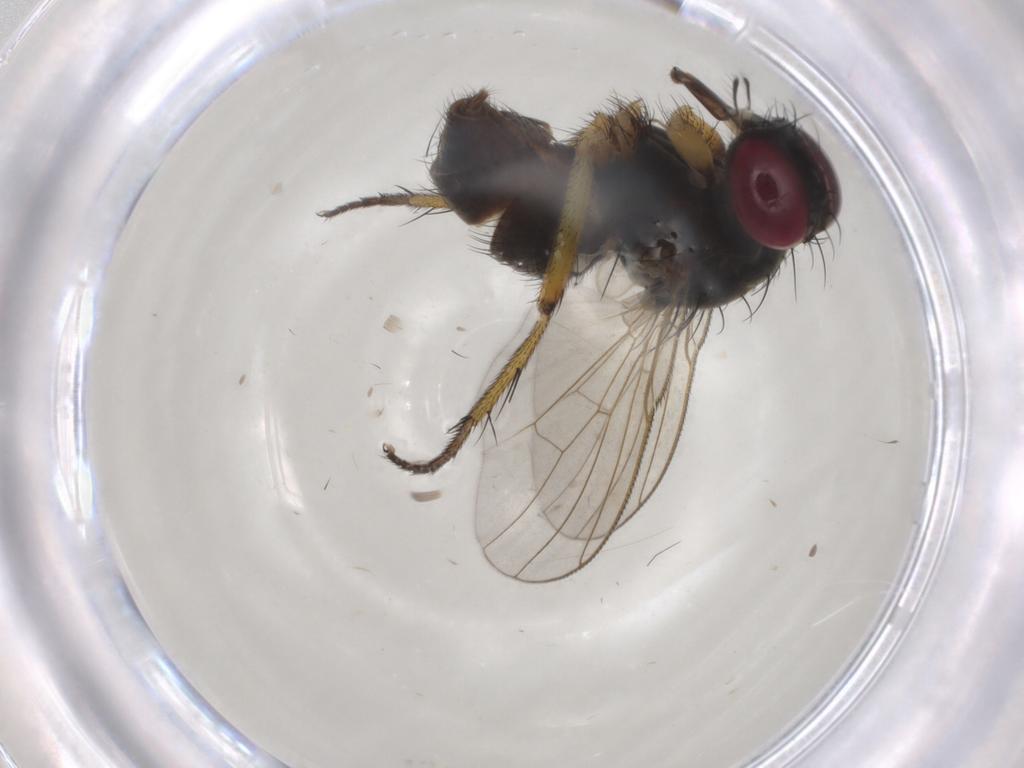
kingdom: Animalia
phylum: Arthropoda
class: Insecta
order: Diptera
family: Muscidae
